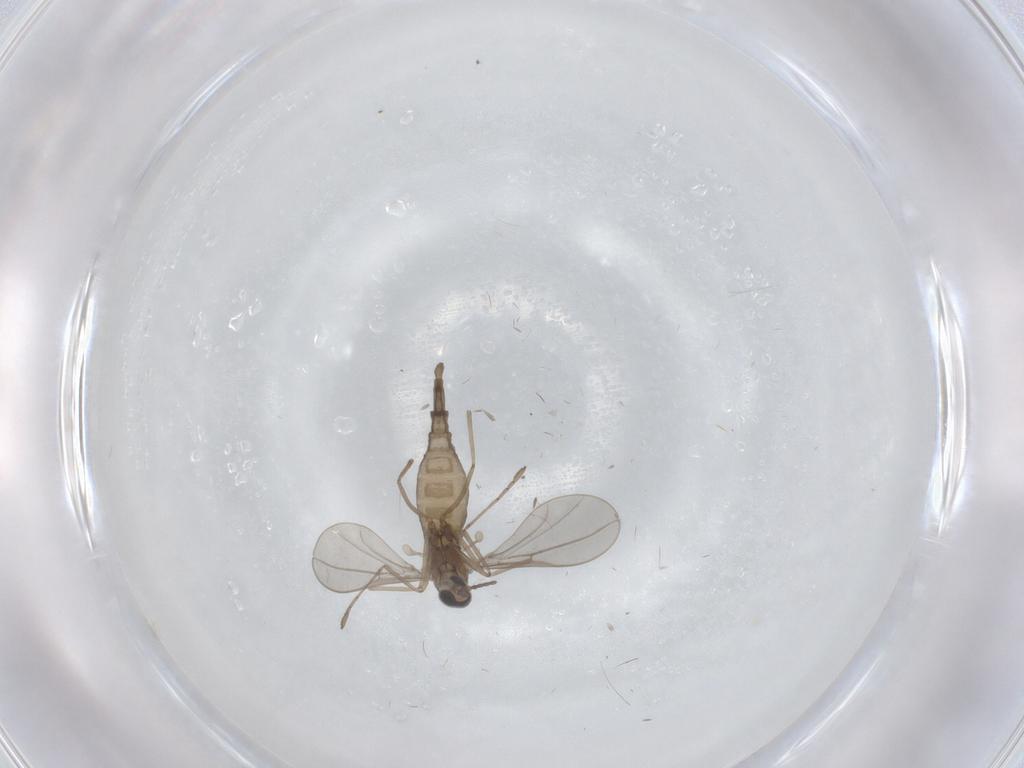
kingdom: Animalia
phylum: Arthropoda
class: Insecta
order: Diptera
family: Cecidomyiidae
